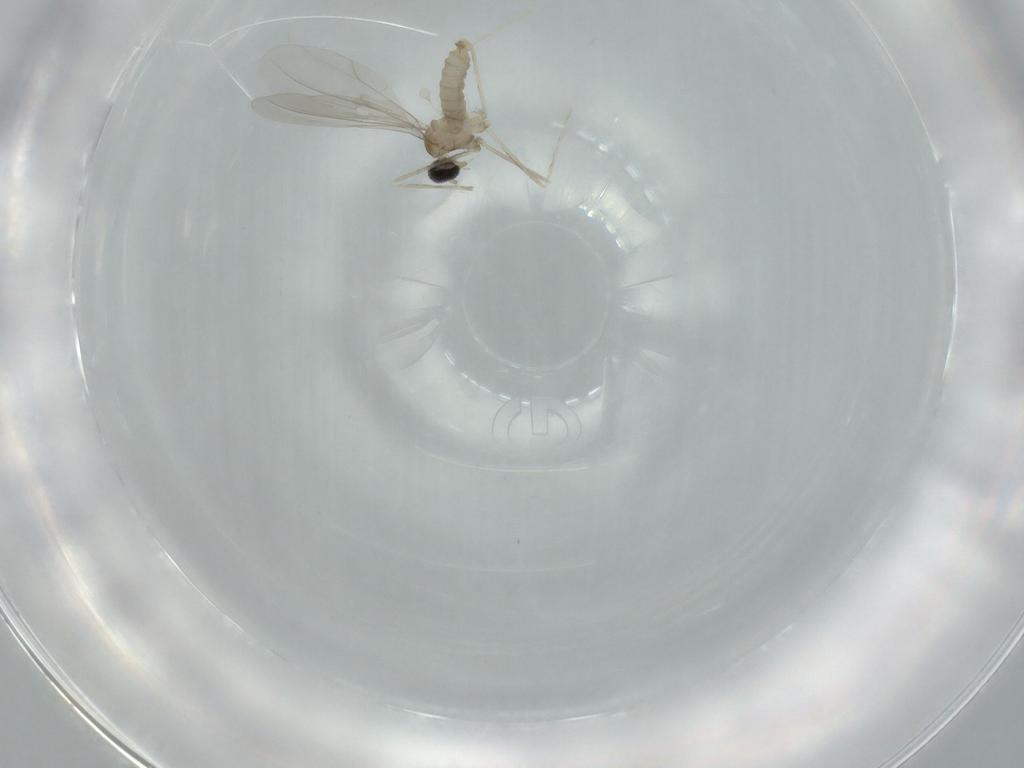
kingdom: Animalia
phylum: Arthropoda
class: Insecta
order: Diptera
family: Cecidomyiidae
